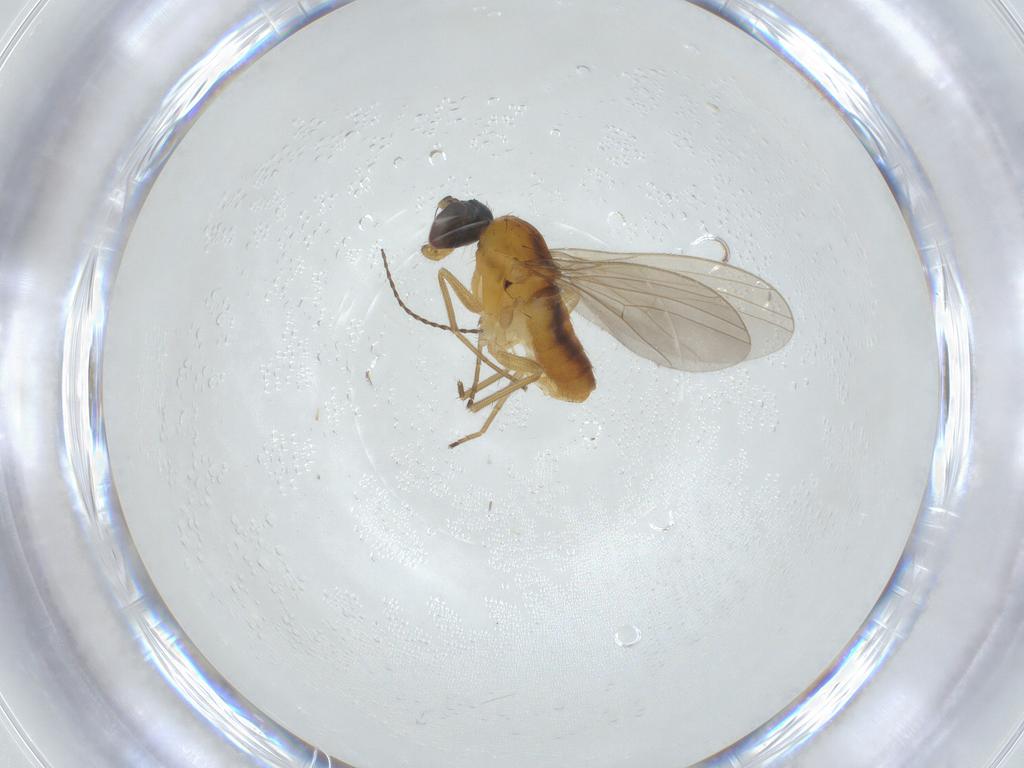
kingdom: Animalia
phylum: Arthropoda
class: Insecta
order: Diptera
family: Dolichopodidae
